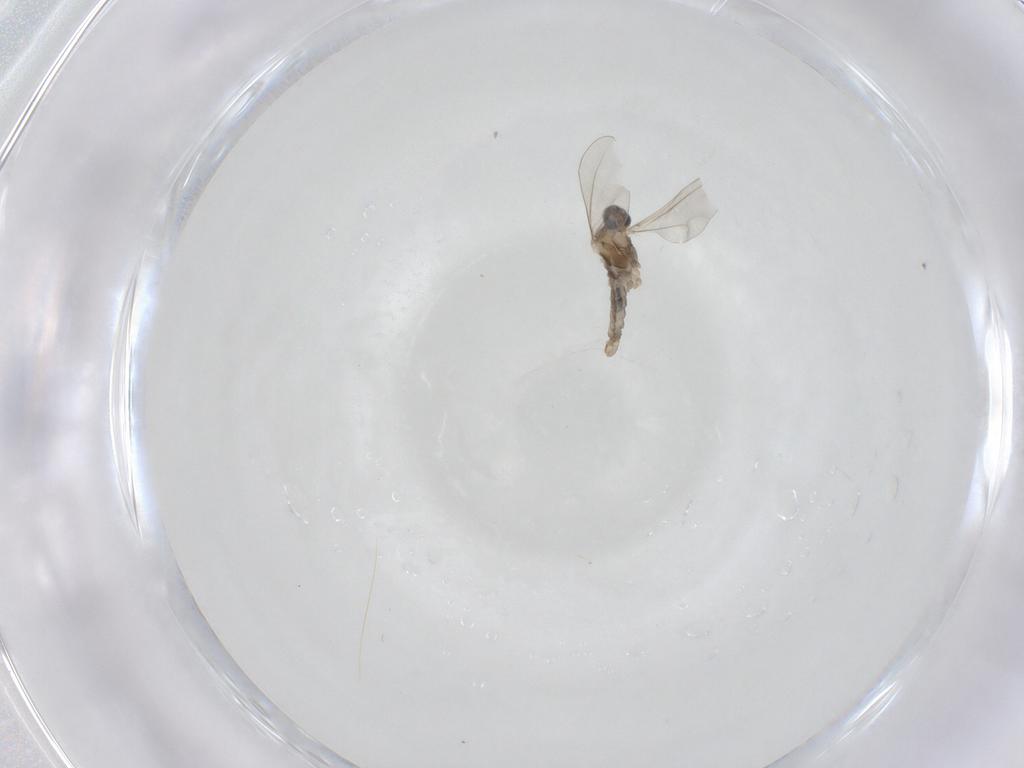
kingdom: Animalia
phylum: Arthropoda
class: Insecta
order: Diptera
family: Cecidomyiidae
